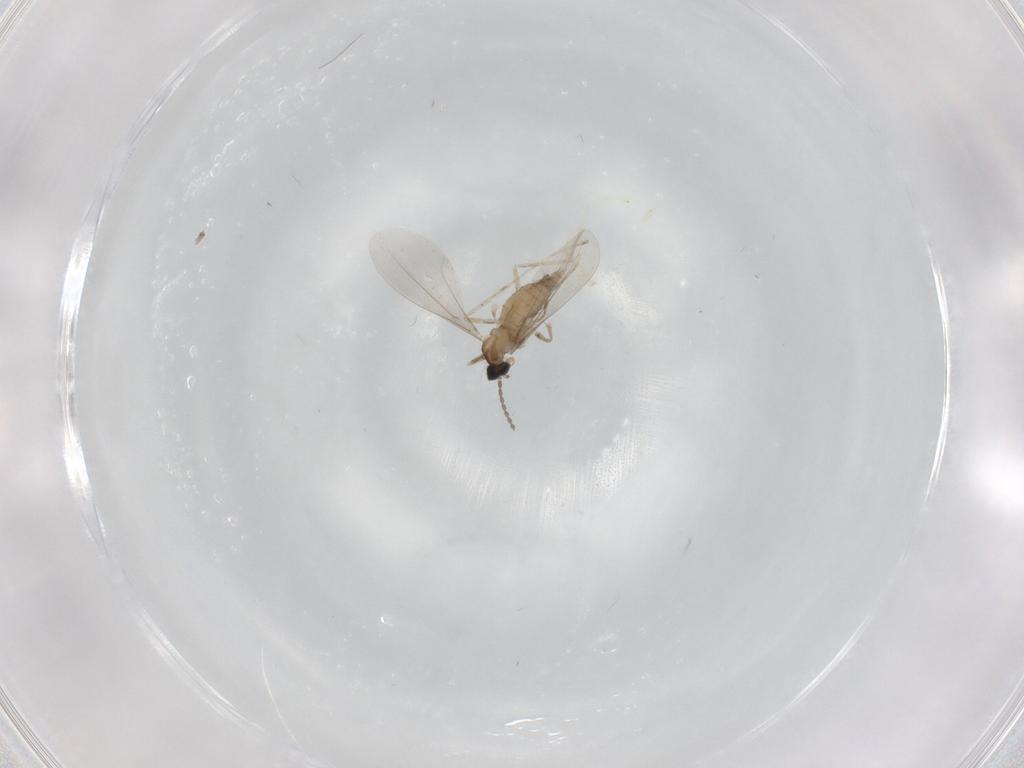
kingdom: Animalia
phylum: Arthropoda
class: Insecta
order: Diptera
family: Cecidomyiidae
